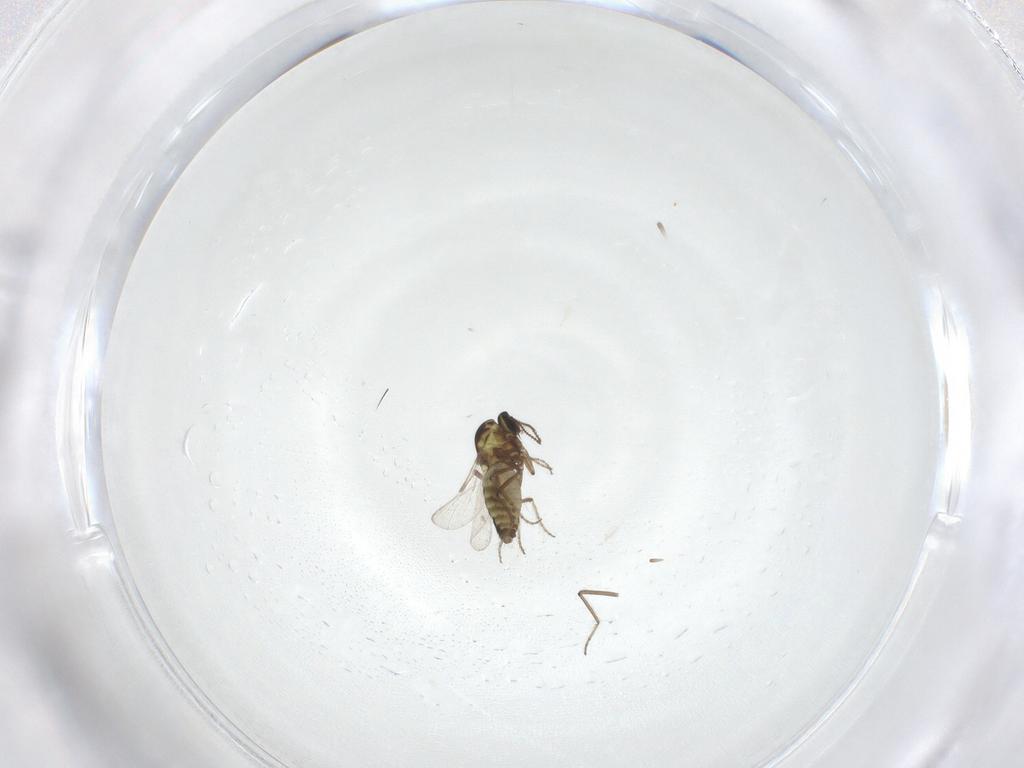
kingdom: Animalia
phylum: Arthropoda
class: Insecta
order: Diptera
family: Ceratopogonidae
